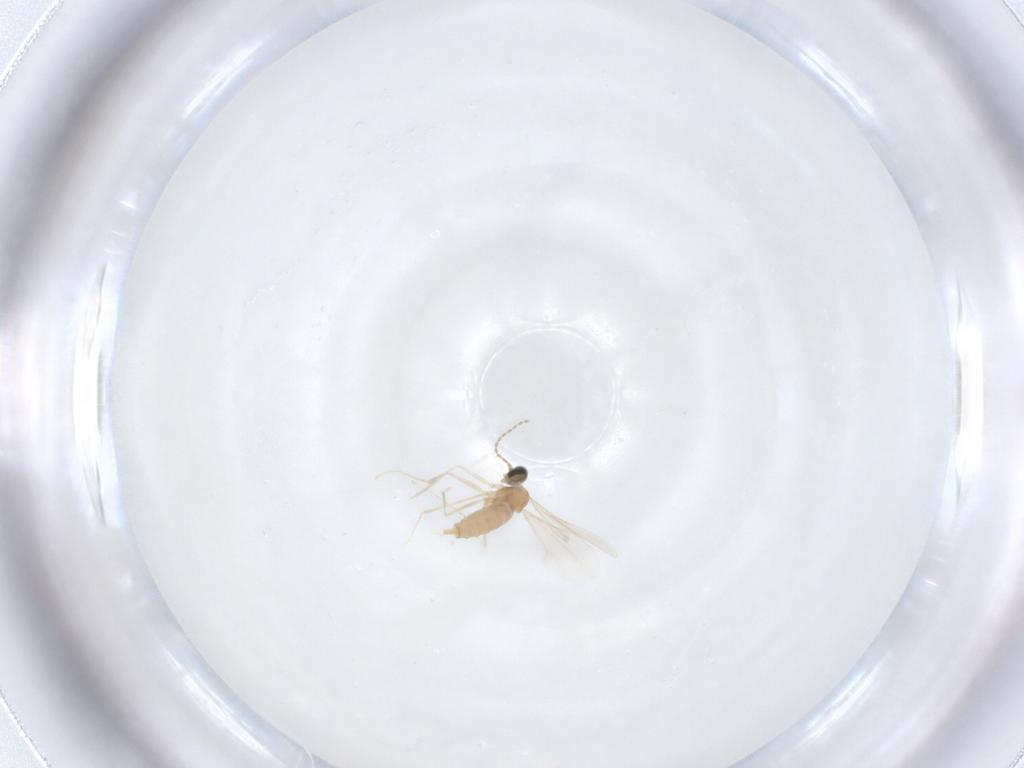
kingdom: Animalia
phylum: Arthropoda
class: Insecta
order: Diptera
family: Cecidomyiidae
